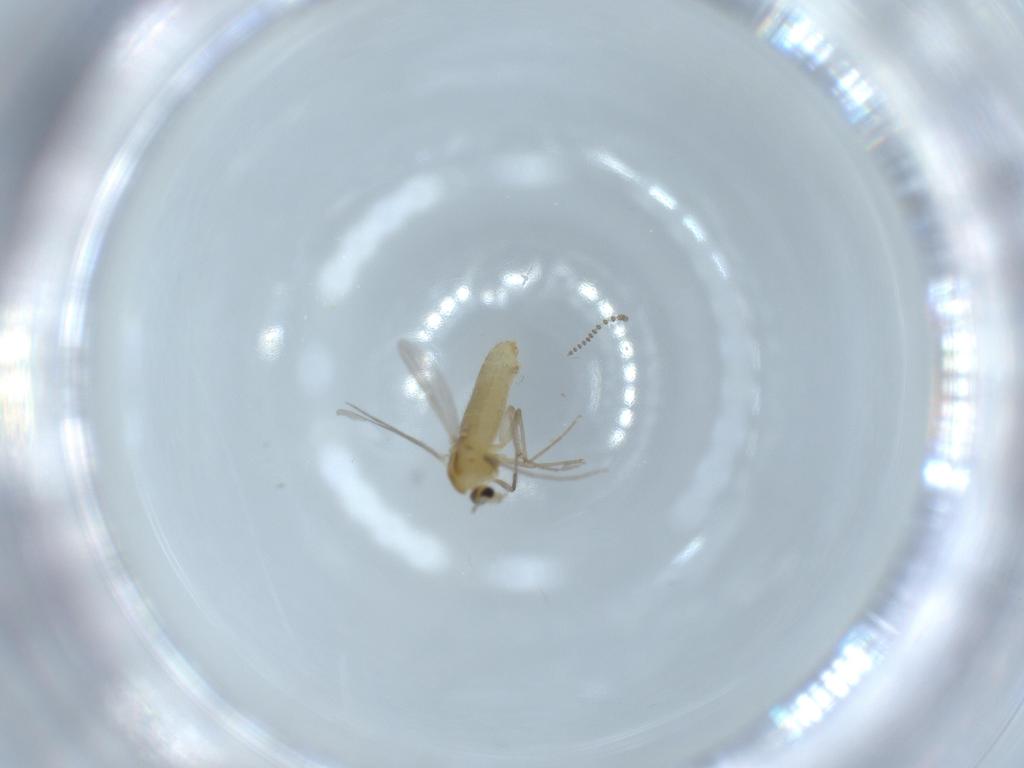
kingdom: Animalia
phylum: Arthropoda
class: Insecta
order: Diptera
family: Chironomidae
